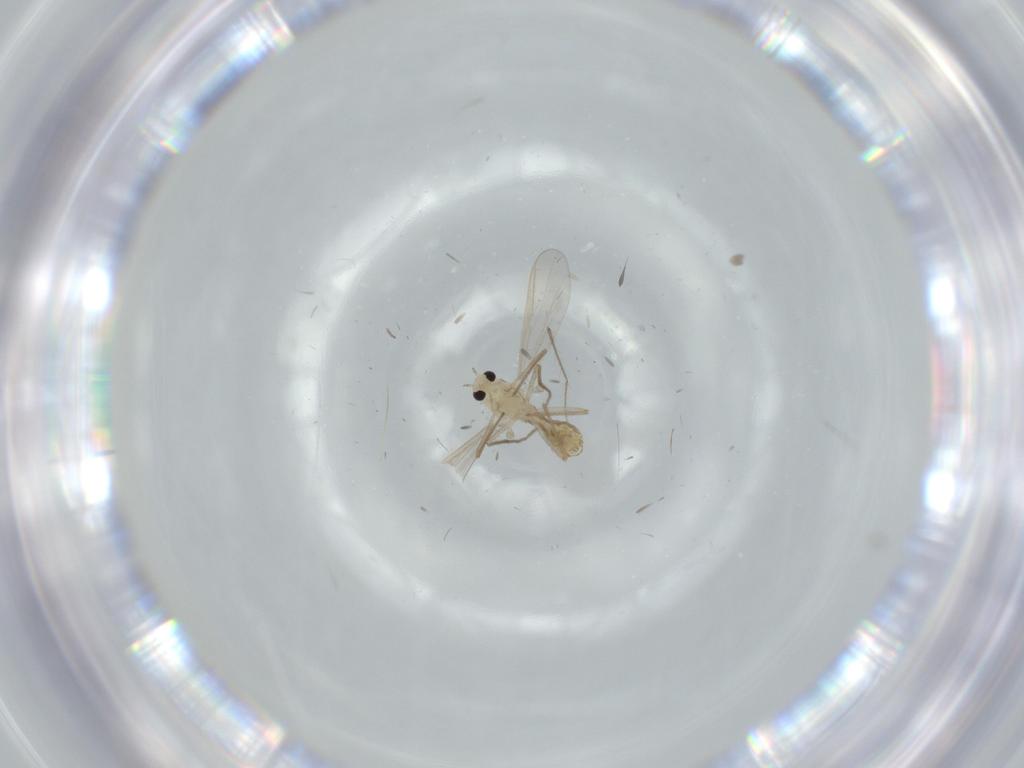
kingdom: Animalia
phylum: Arthropoda
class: Insecta
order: Diptera
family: Cecidomyiidae
